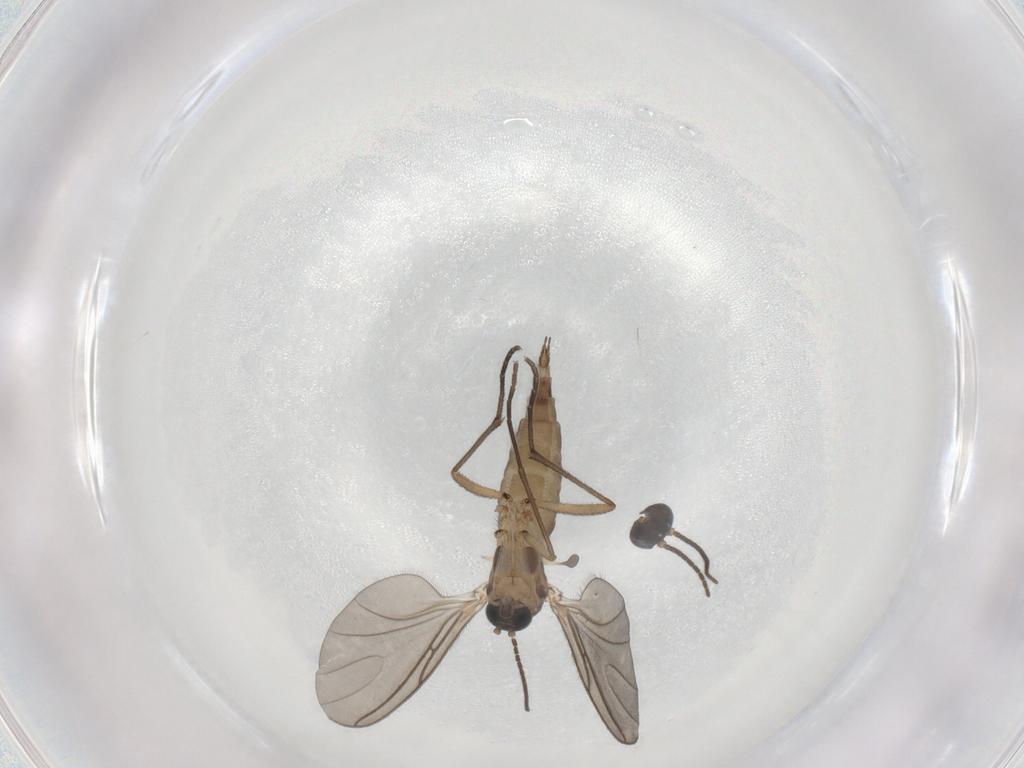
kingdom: Animalia
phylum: Arthropoda
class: Insecta
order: Diptera
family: Sciaridae
